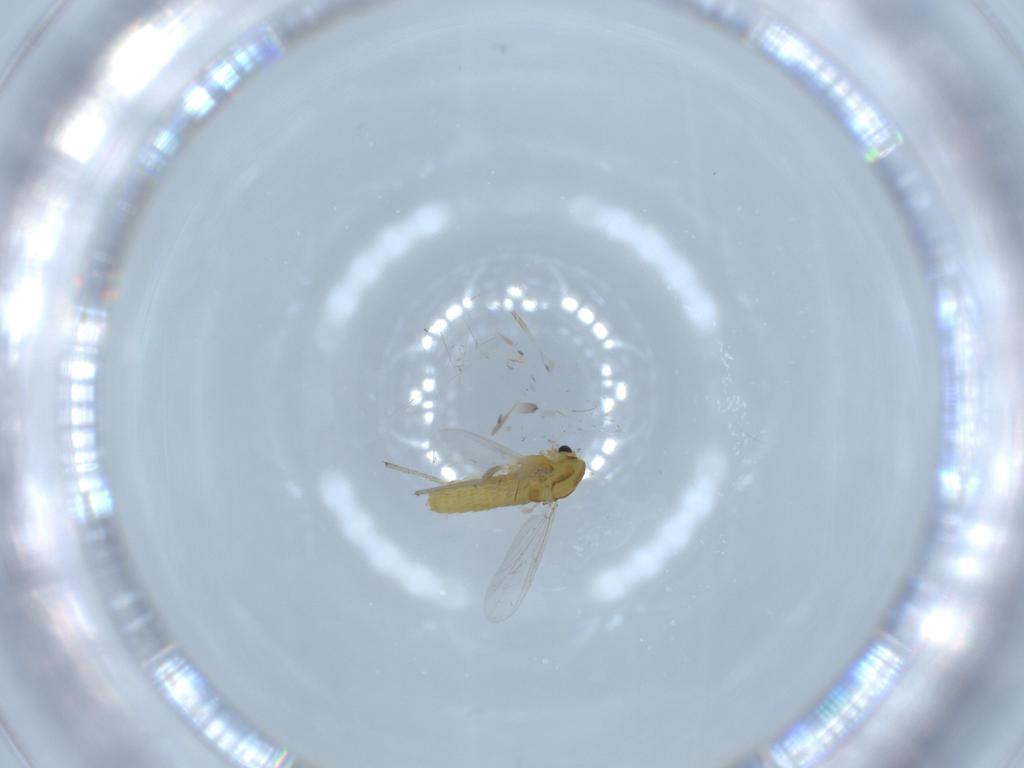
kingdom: Animalia
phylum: Arthropoda
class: Insecta
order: Diptera
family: Chironomidae
